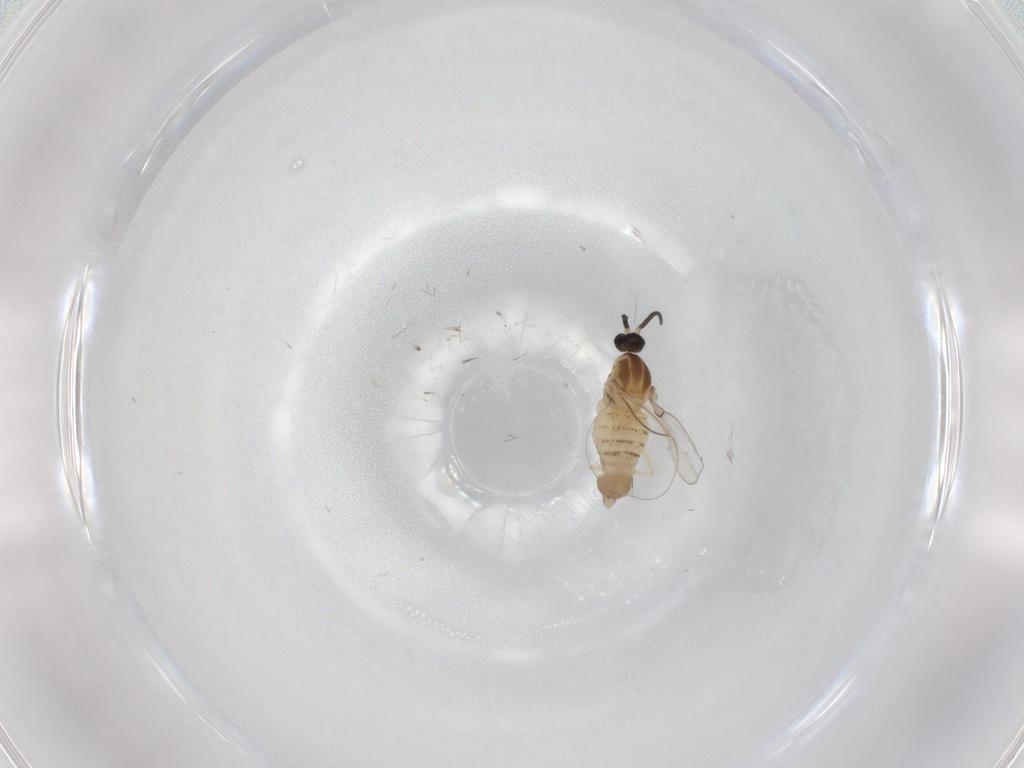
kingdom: Animalia
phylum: Arthropoda
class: Insecta
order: Diptera
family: Cecidomyiidae
